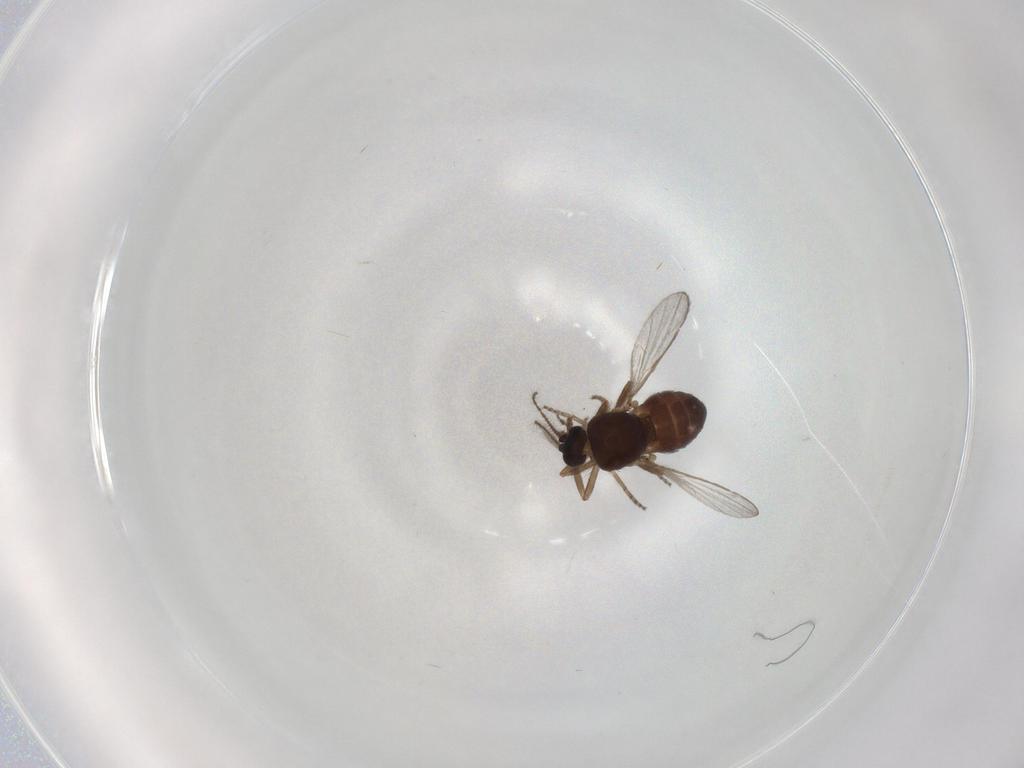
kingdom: Animalia
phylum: Arthropoda
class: Insecta
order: Diptera
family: Ceratopogonidae
